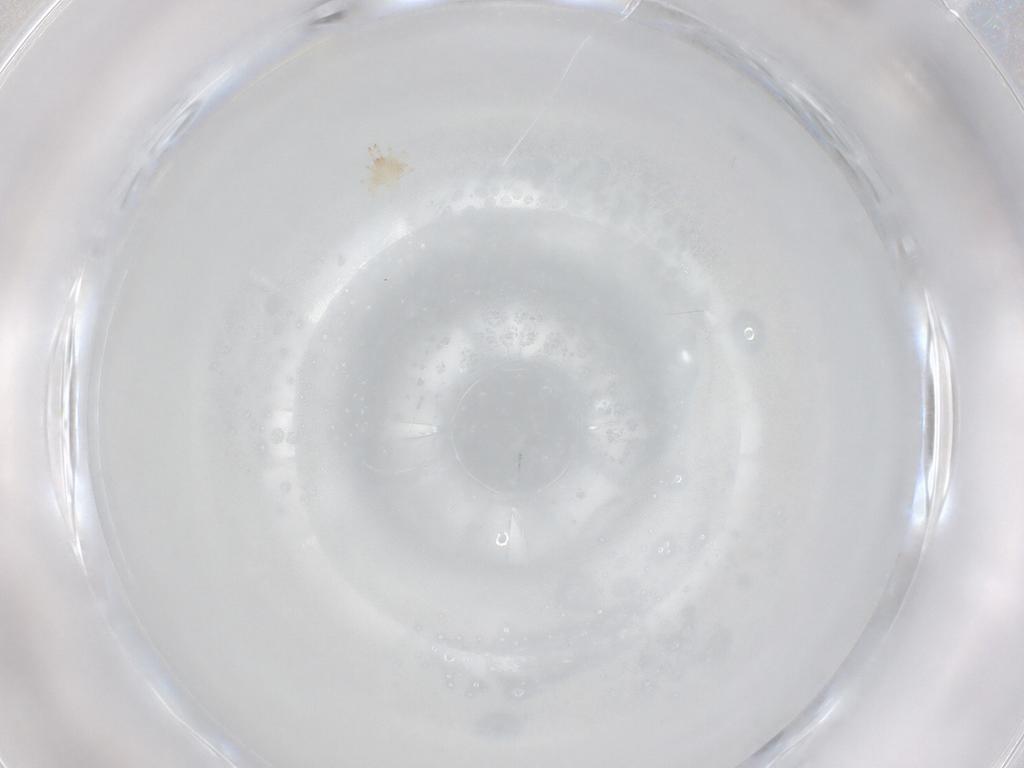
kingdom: Animalia
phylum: Arthropoda
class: Arachnida
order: Trombidiformes
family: Cunaxidae
